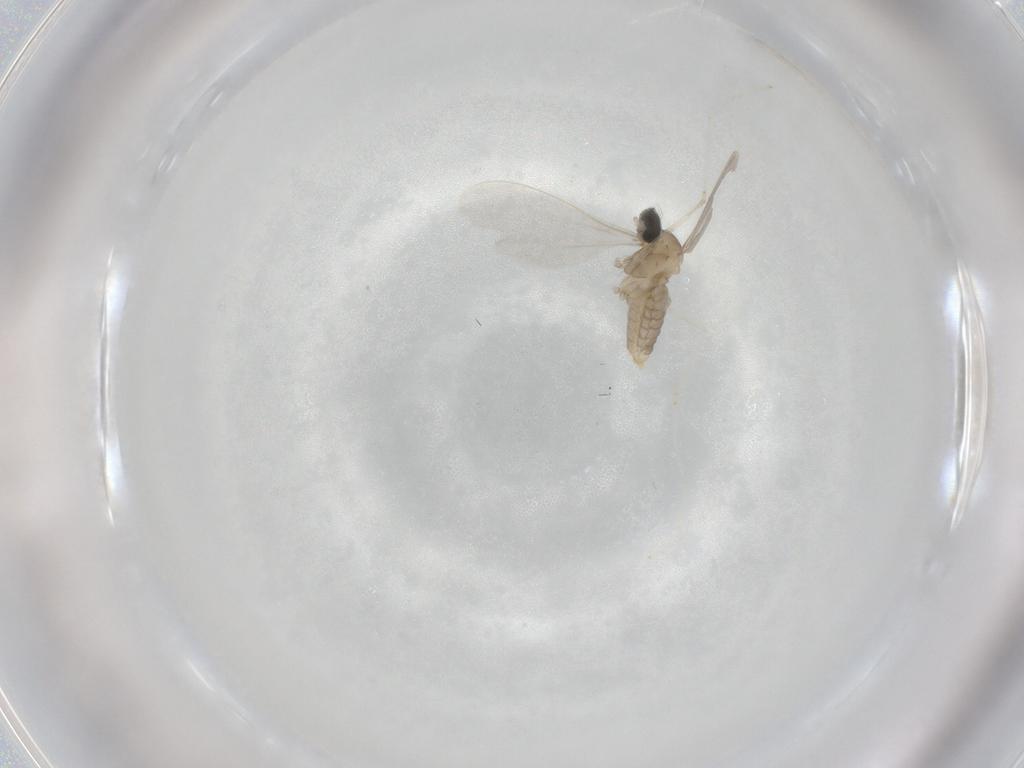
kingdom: Animalia
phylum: Arthropoda
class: Insecta
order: Diptera
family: Cecidomyiidae
